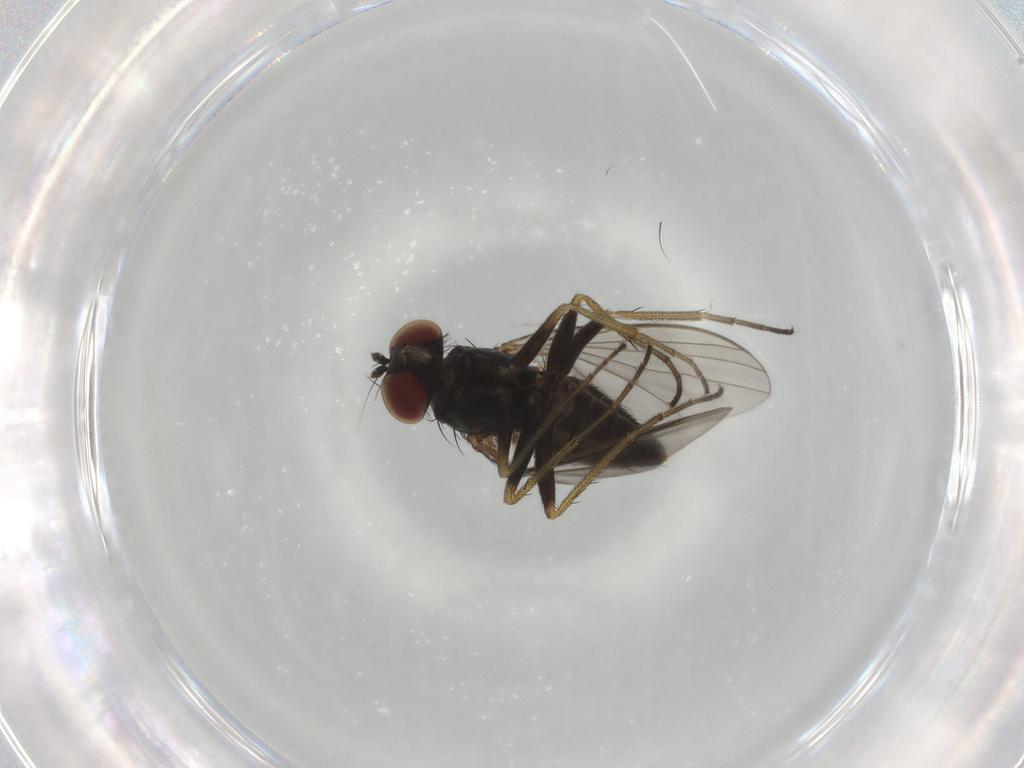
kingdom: Animalia
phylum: Arthropoda
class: Insecta
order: Diptera
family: Dolichopodidae
